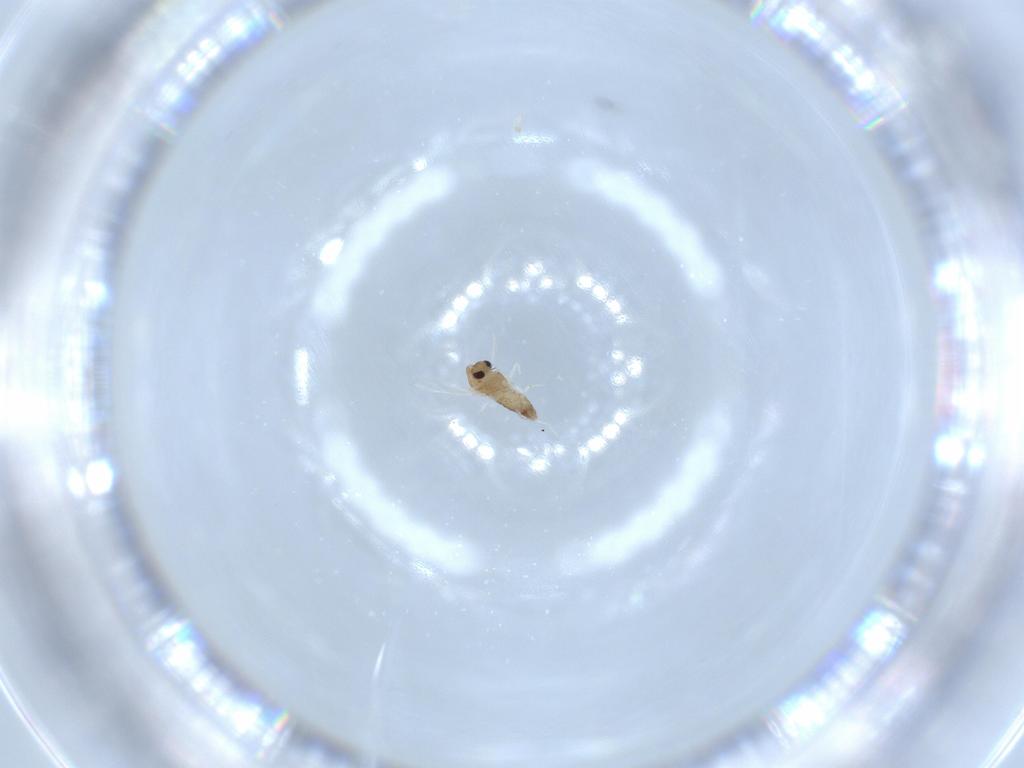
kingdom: Animalia
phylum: Arthropoda
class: Insecta
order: Diptera
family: Chironomidae
